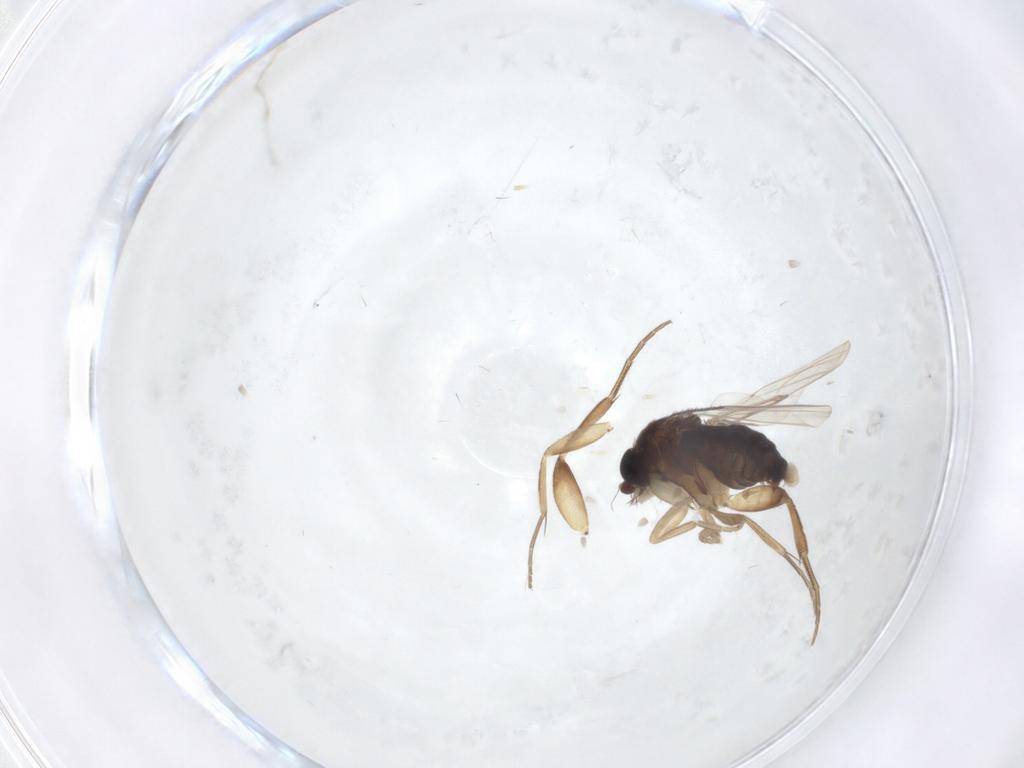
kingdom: Animalia
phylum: Arthropoda
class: Insecta
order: Diptera
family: Phoridae
